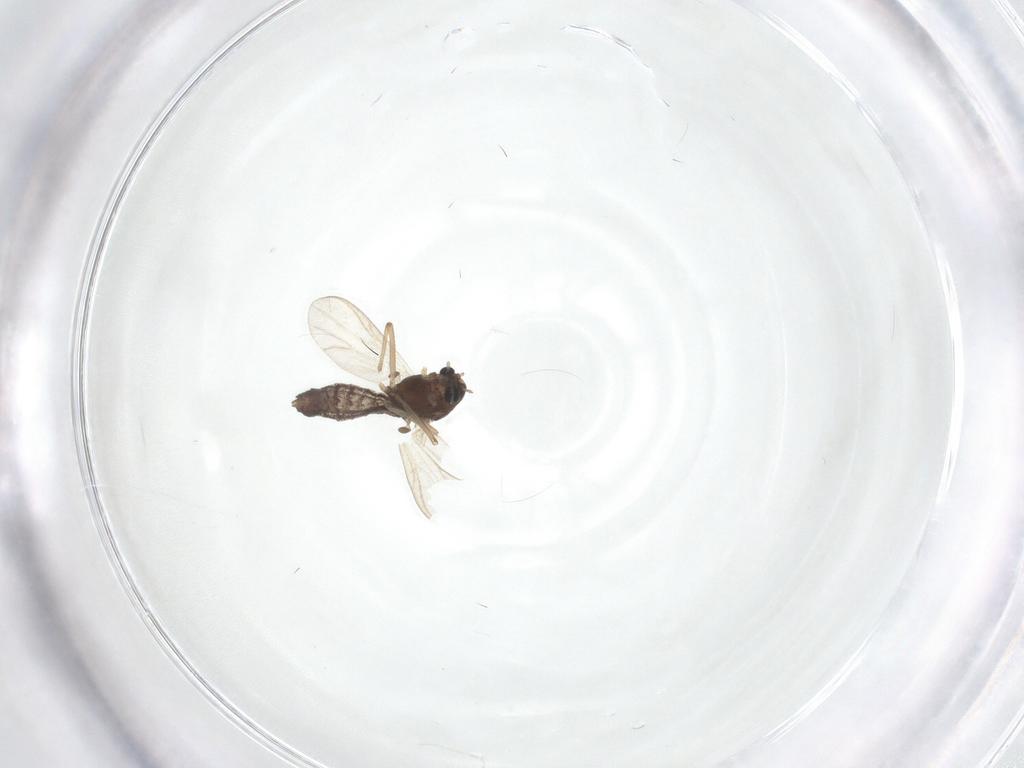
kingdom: Animalia
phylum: Arthropoda
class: Insecta
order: Diptera
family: Chironomidae
